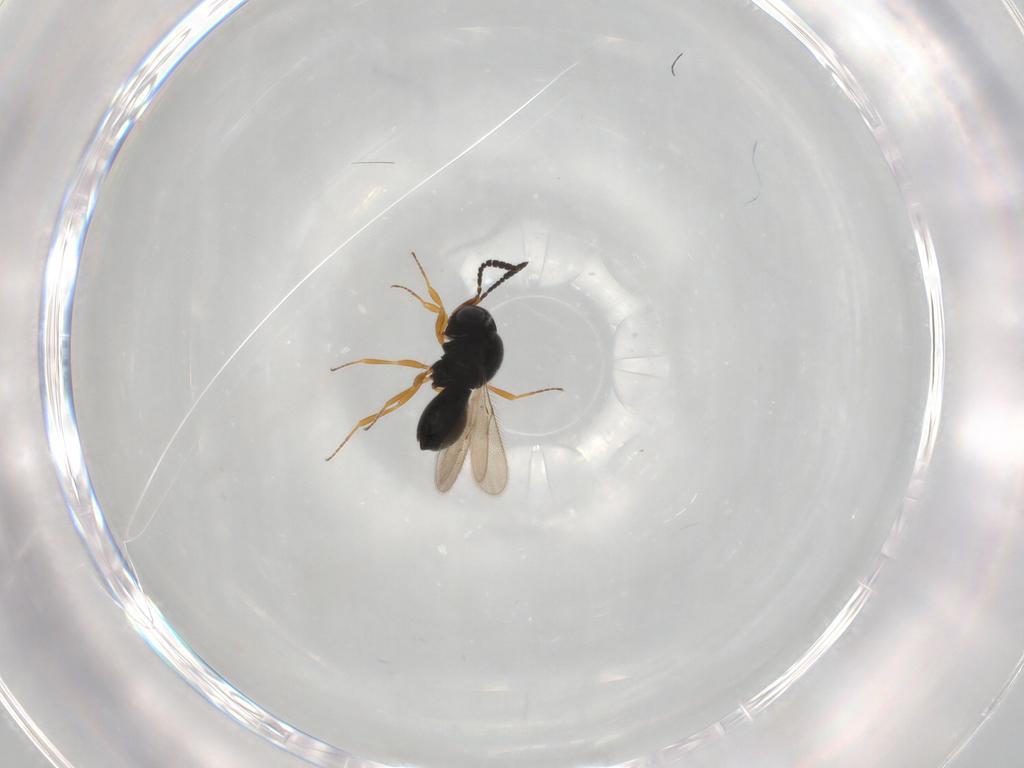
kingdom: Animalia
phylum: Arthropoda
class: Insecta
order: Hymenoptera
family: Scelionidae
